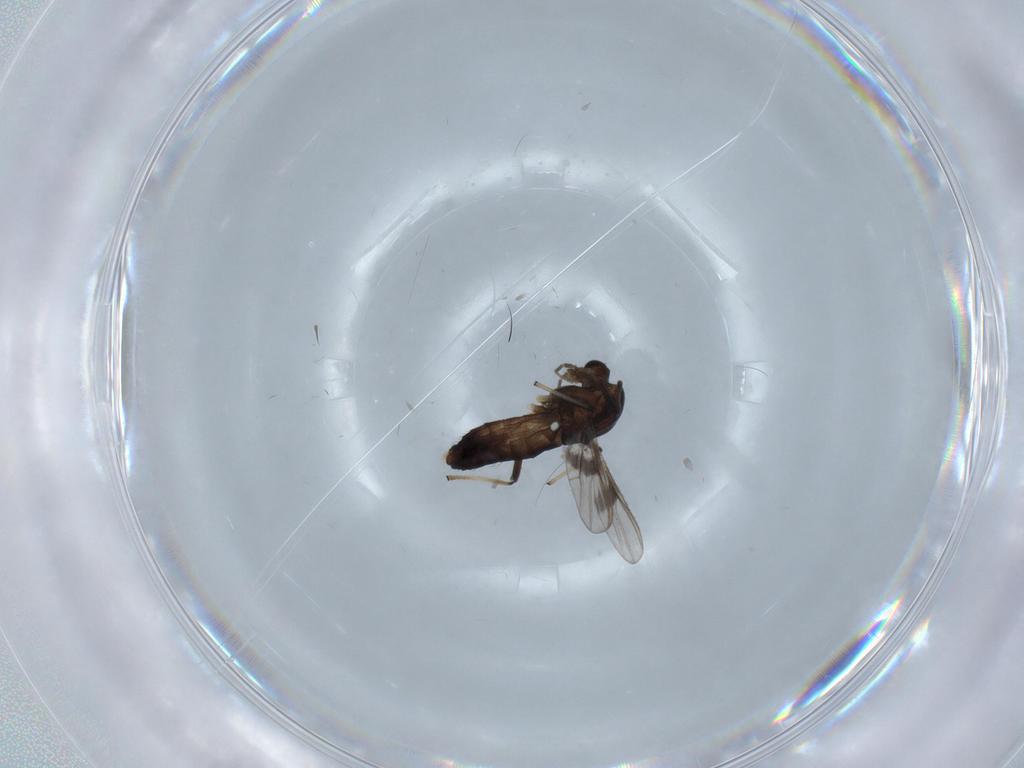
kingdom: Animalia
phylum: Arthropoda
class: Insecta
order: Diptera
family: Chironomidae
